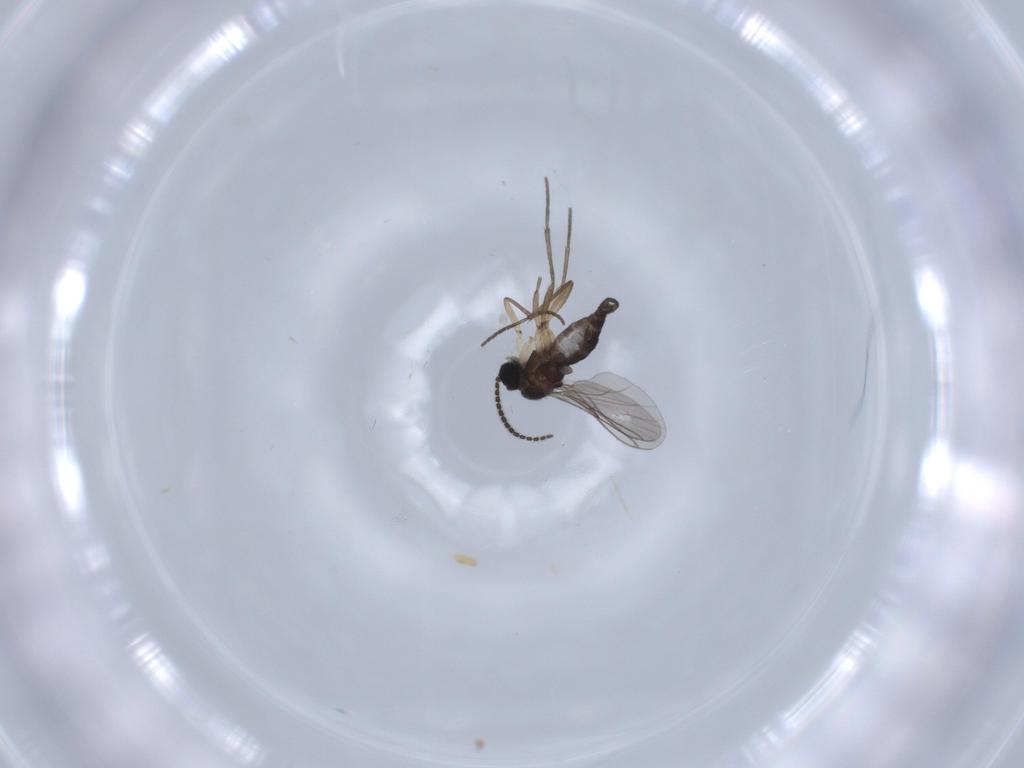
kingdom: Animalia
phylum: Arthropoda
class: Insecta
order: Diptera
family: Sciaridae
